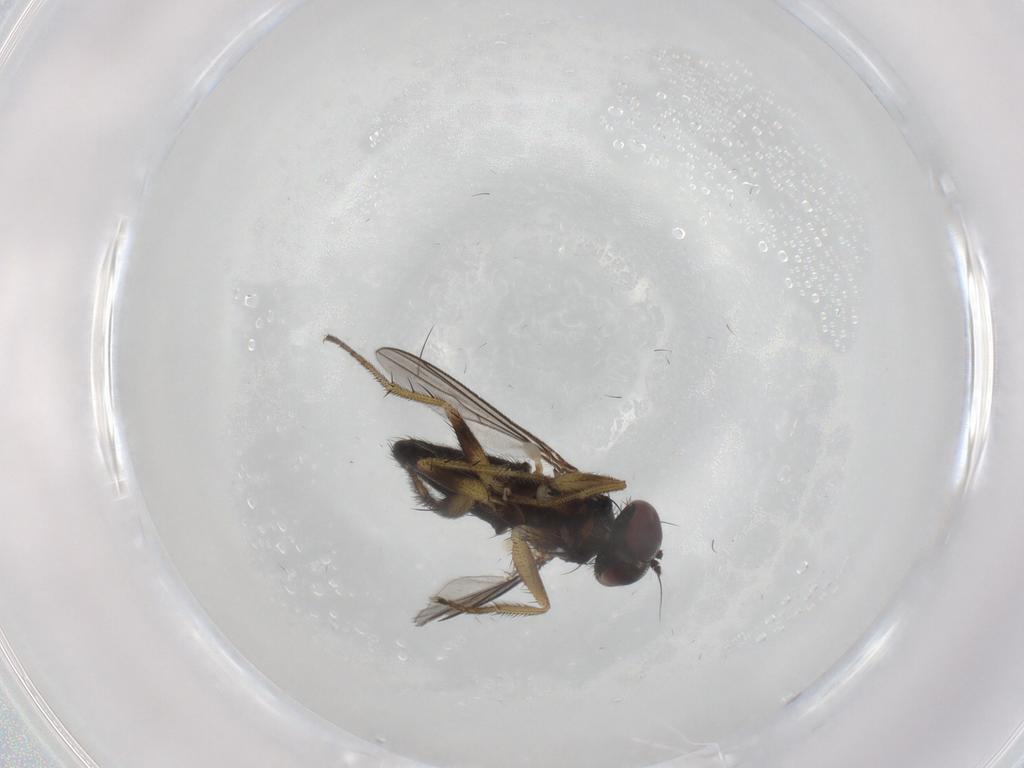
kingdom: Animalia
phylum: Arthropoda
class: Insecta
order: Diptera
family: Dolichopodidae
